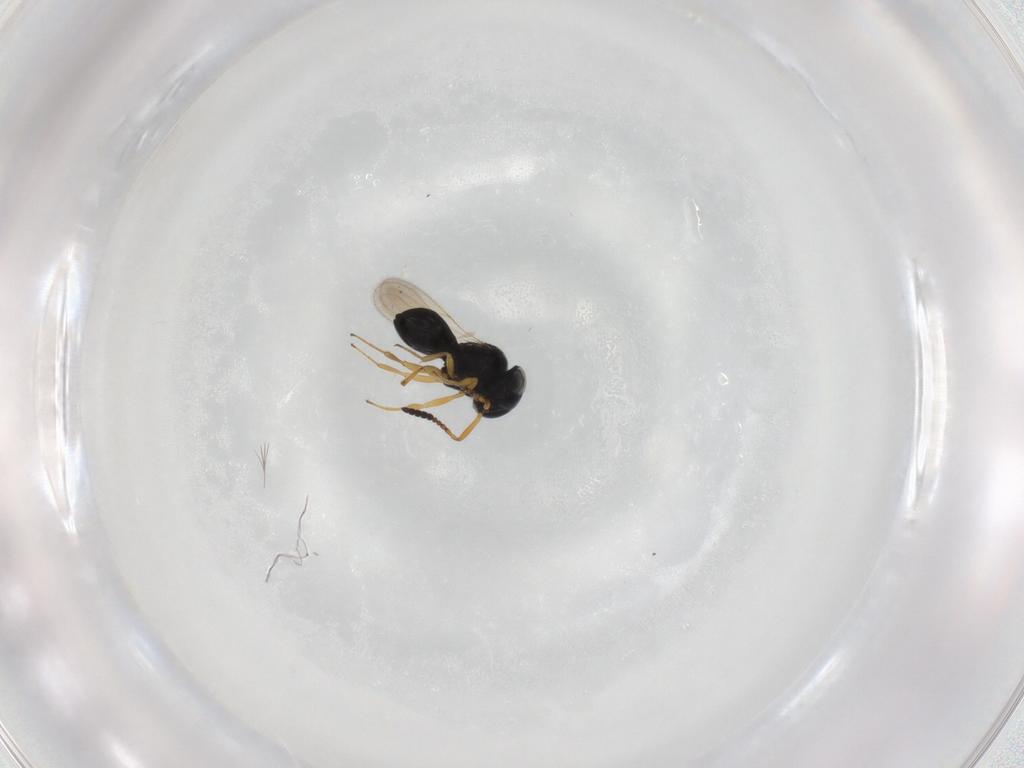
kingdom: Animalia
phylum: Arthropoda
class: Insecta
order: Hymenoptera
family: Scelionidae
